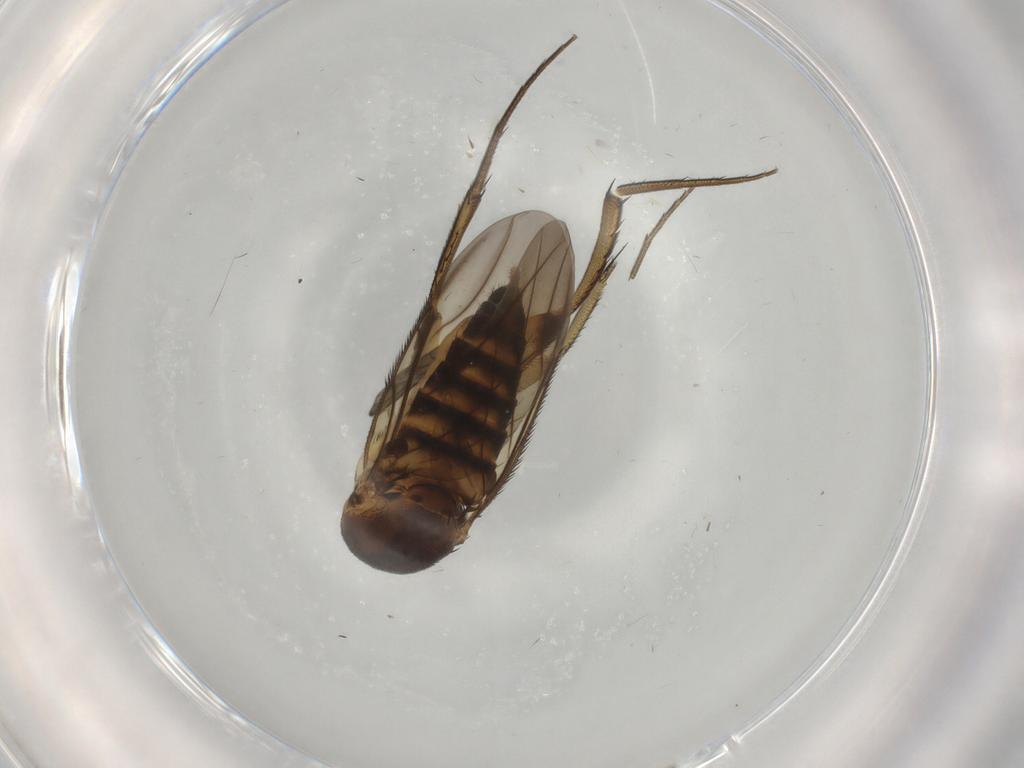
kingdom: Animalia
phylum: Arthropoda
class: Insecta
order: Diptera
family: Phoridae
